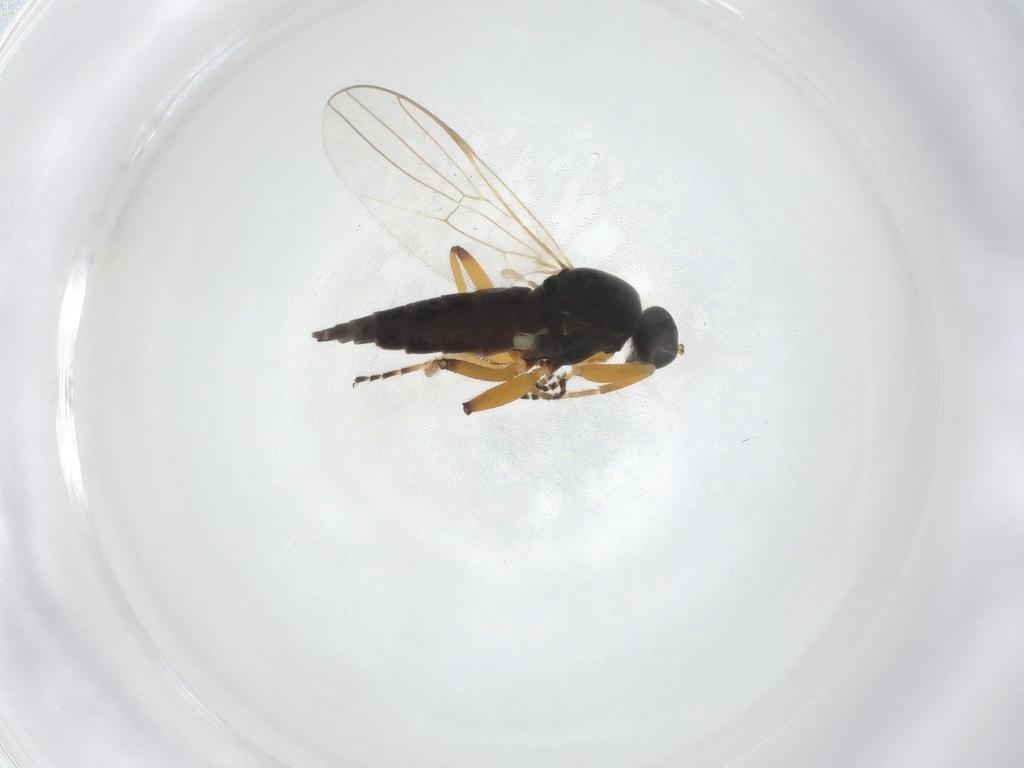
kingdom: Animalia
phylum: Arthropoda
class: Insecta
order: Diptera
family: Hybotidae
